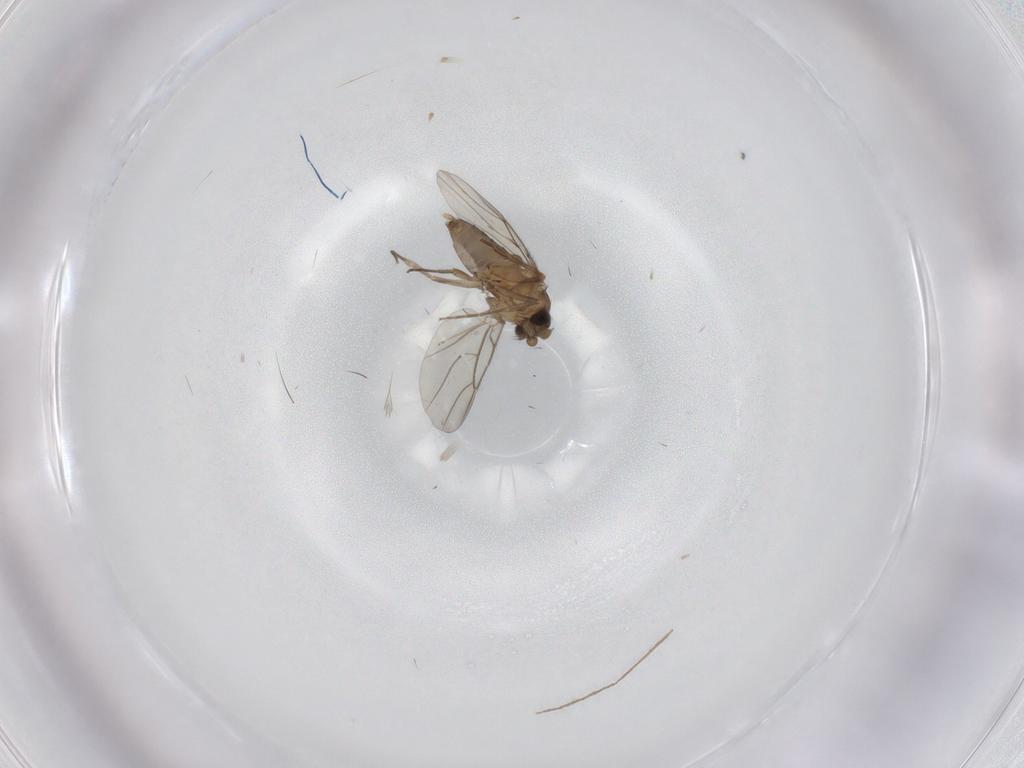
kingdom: Animalia
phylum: Arthropoda
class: Insecta
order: Diptera
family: Chironomidae
